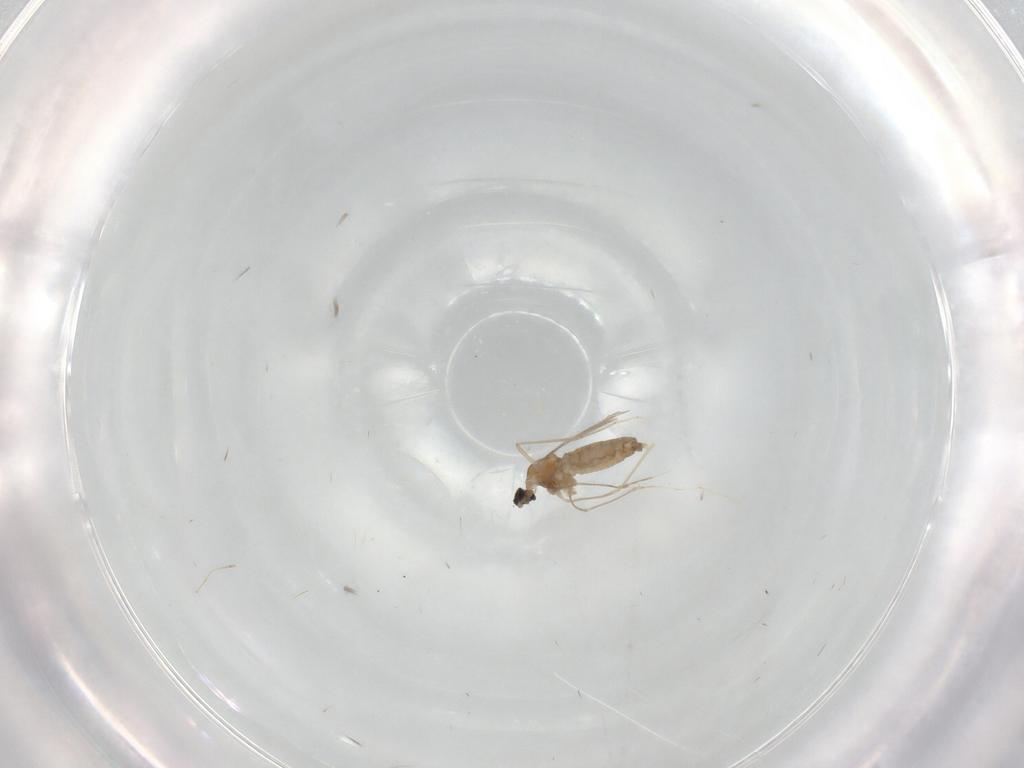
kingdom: Animalia
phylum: Arthropoda
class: Insecta
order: Diptera
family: Cecidomyiidae
